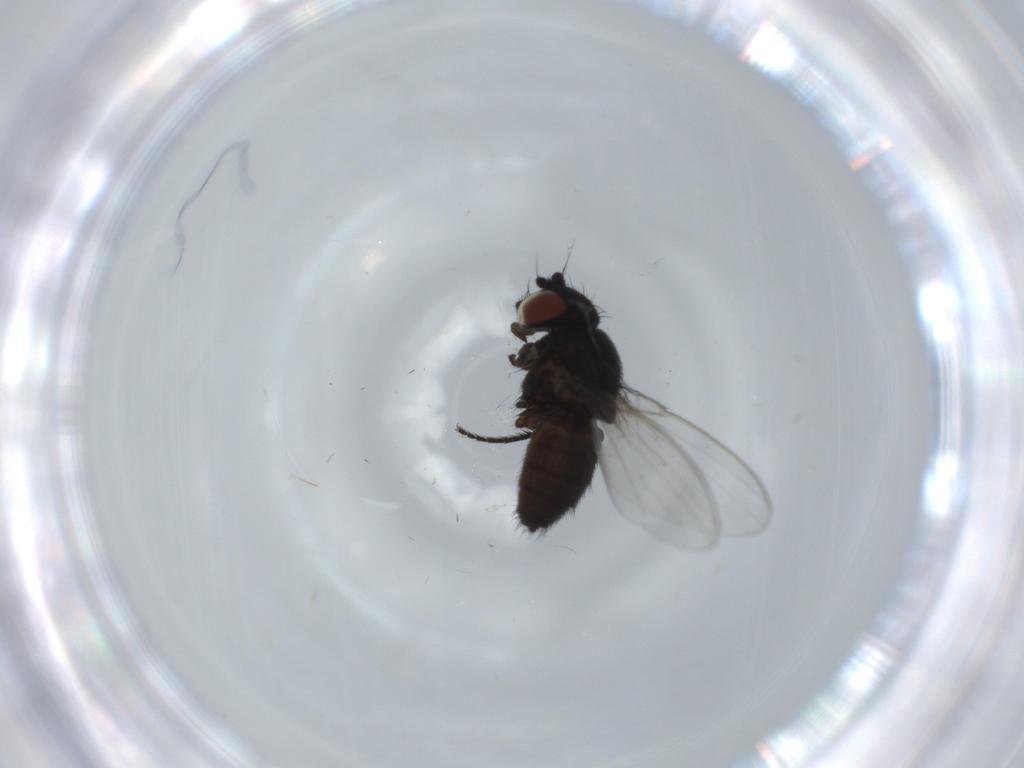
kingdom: Animalia
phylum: Arthropoda
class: Insecta
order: Diptera
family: Milichiidae
